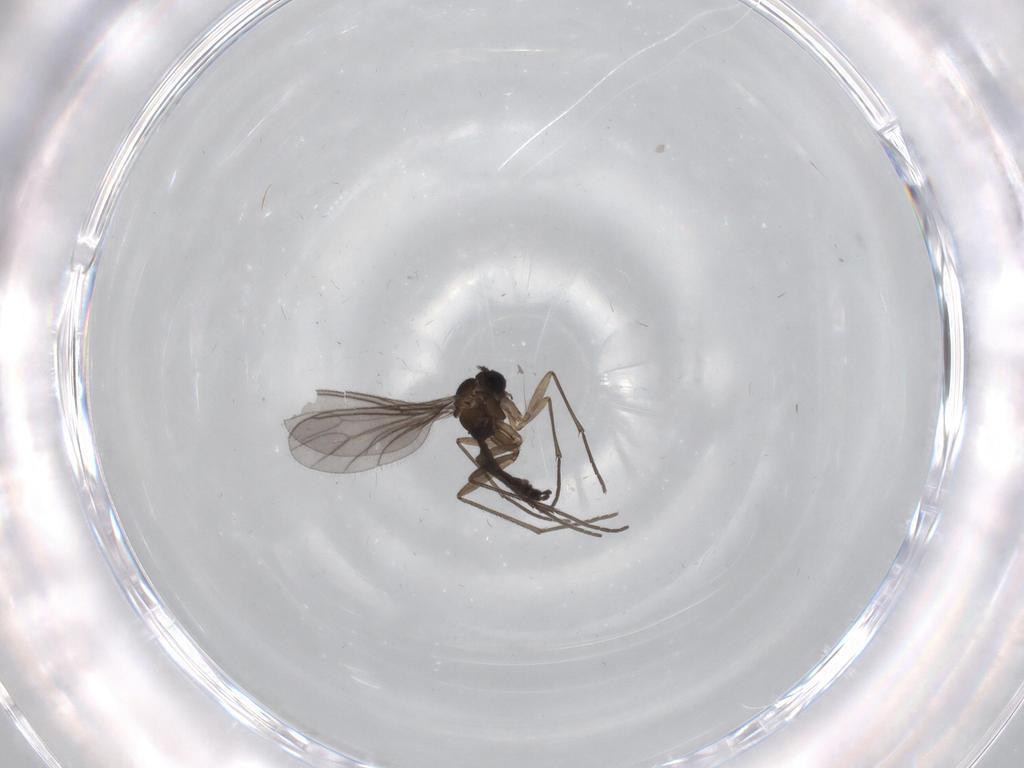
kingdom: Animalia
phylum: Arthropoda
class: Insecta
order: Diptera
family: Sciaridae
